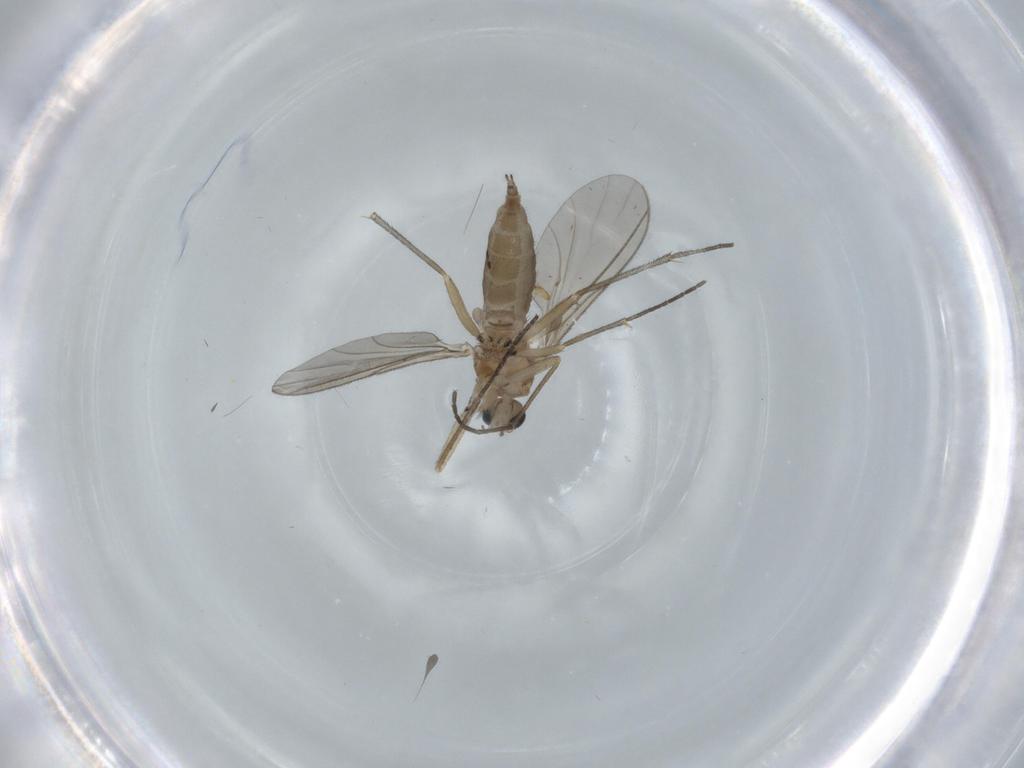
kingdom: Animalia
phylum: Arthropoda
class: Insecta
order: Diptera
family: Sciaridae
